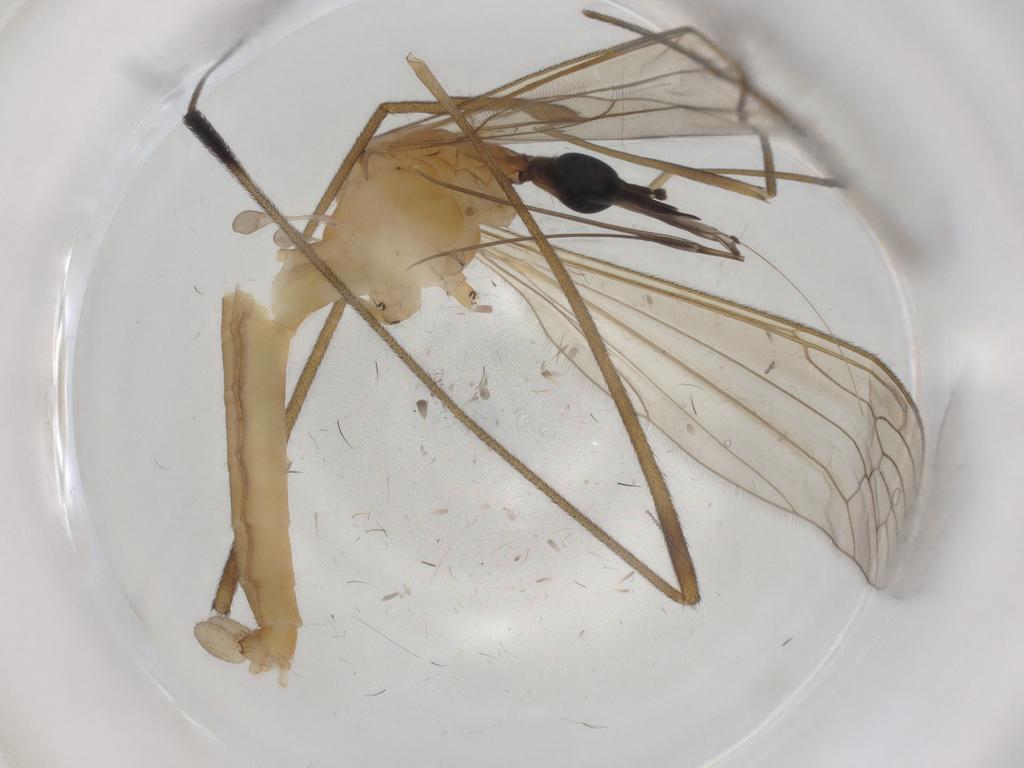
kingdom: Animalia
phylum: Arthropoda
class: Insecta
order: Diptera
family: Limoniidae
